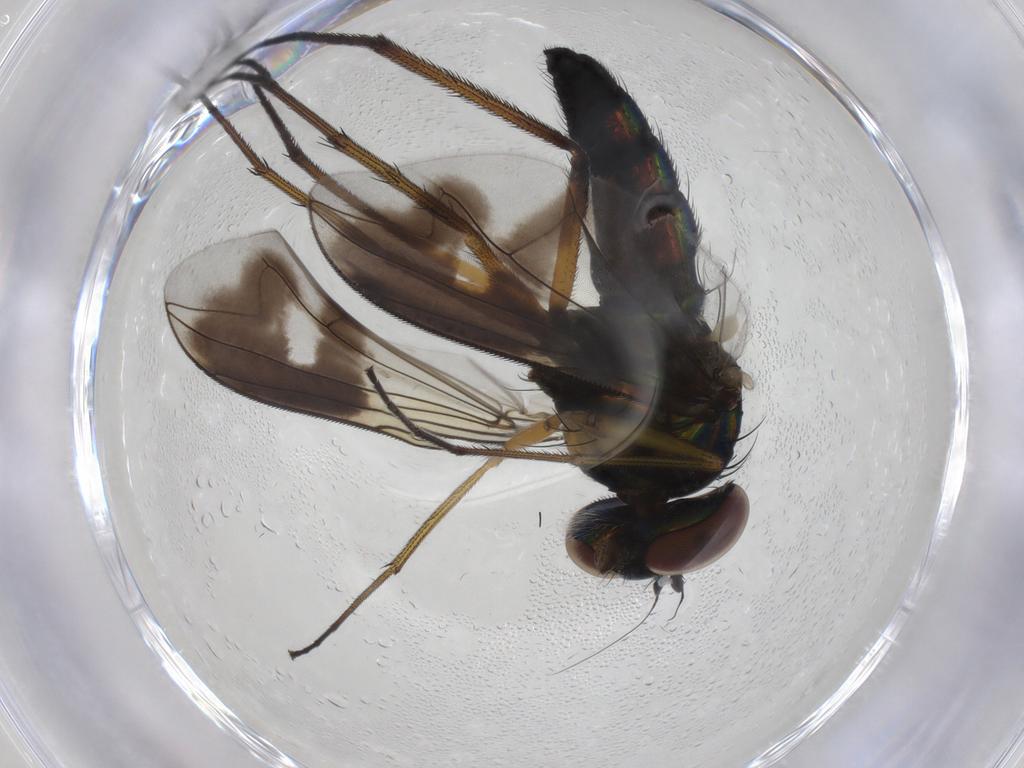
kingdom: Animalia
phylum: Arthropoda
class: Insecta
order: Diptera
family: Dolichopodidae
